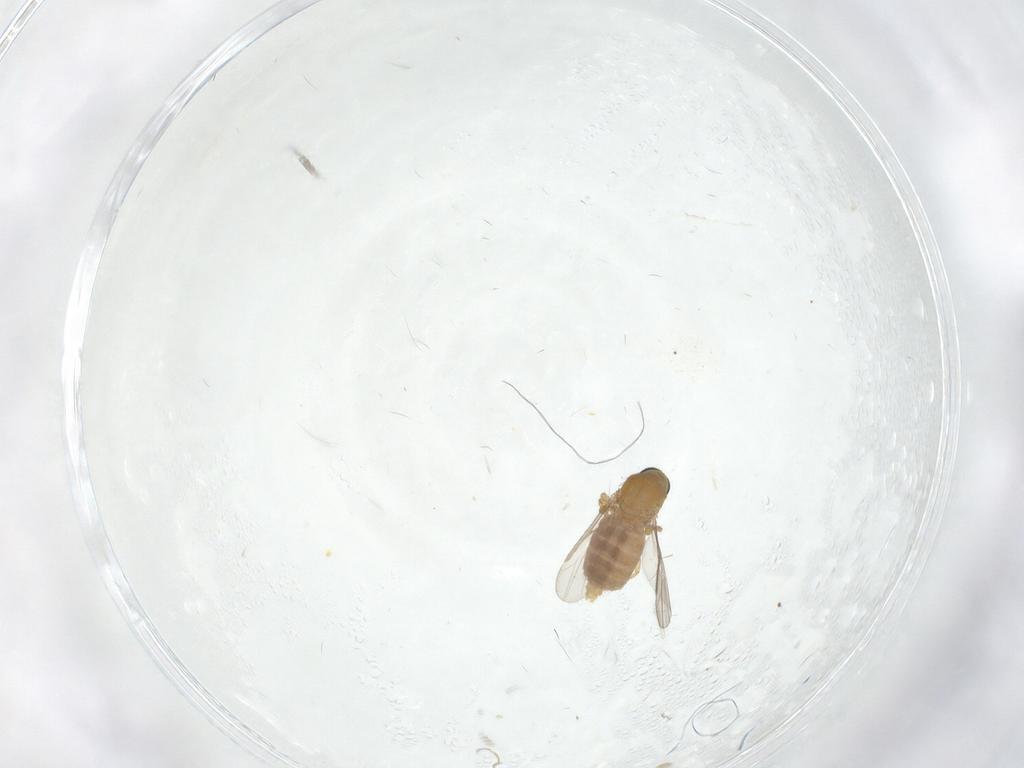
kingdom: Animalia
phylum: Arthropoda
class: Insecta
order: Diptera
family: Ceratopogonidae
